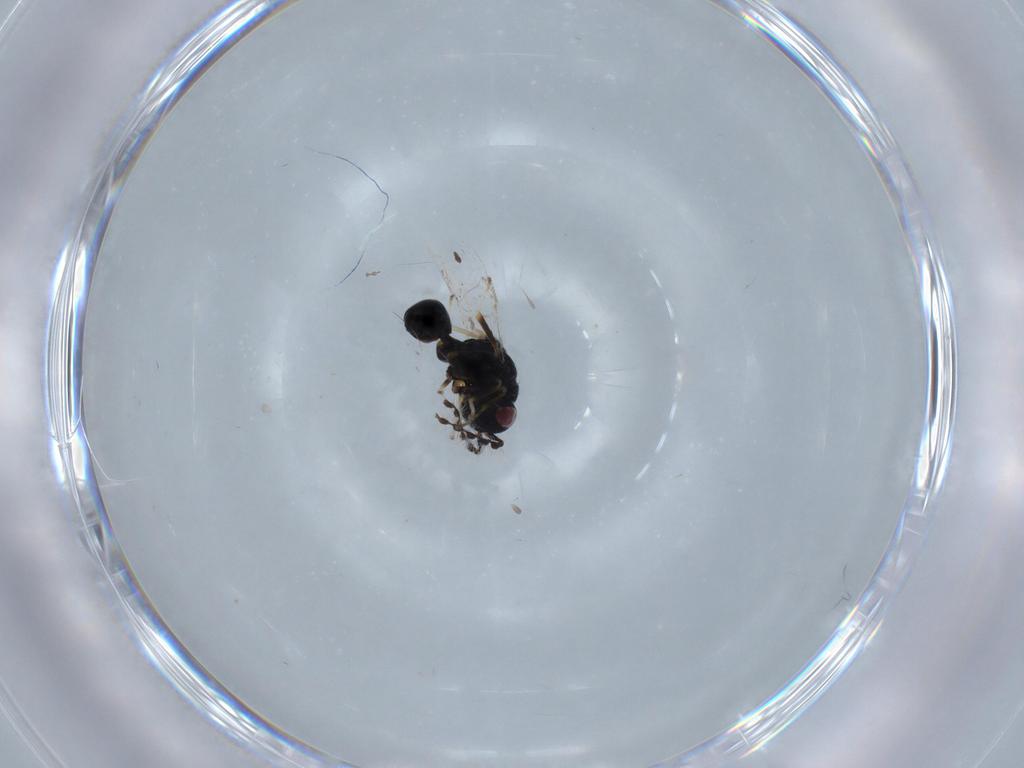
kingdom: Animalia
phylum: Arthropoda
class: Insecta
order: Hymenoptera
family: Eurytomidae
